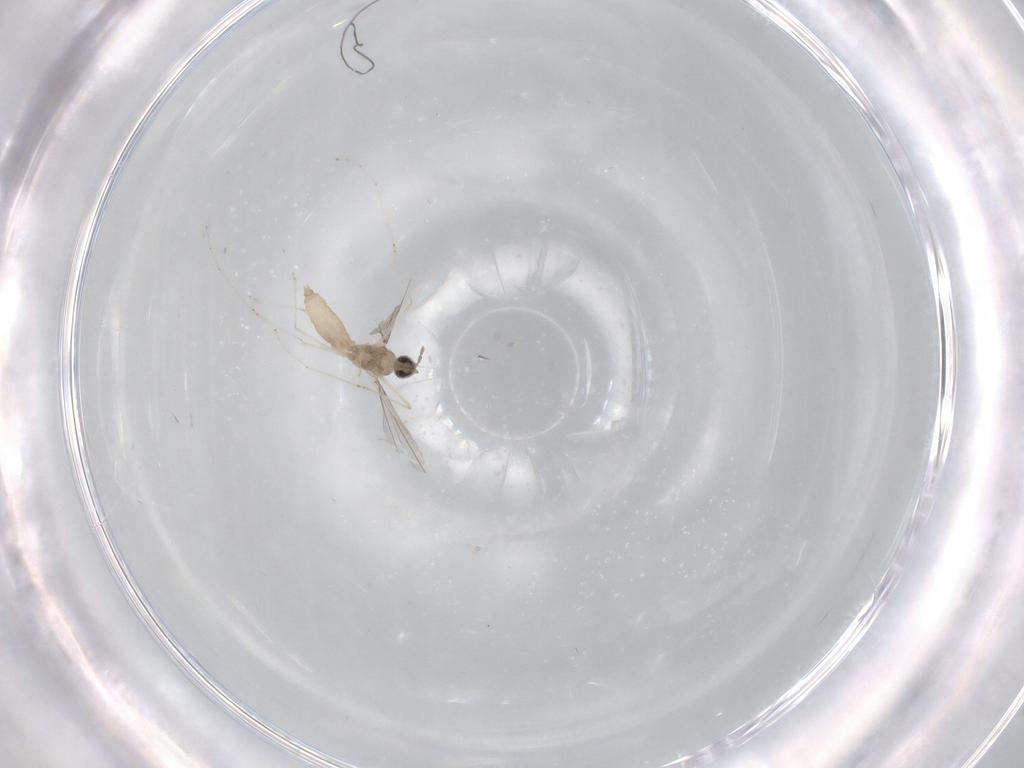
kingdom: Animalia
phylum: Arthropoda
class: Insecta
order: Diptera
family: Cecidomyiidae
